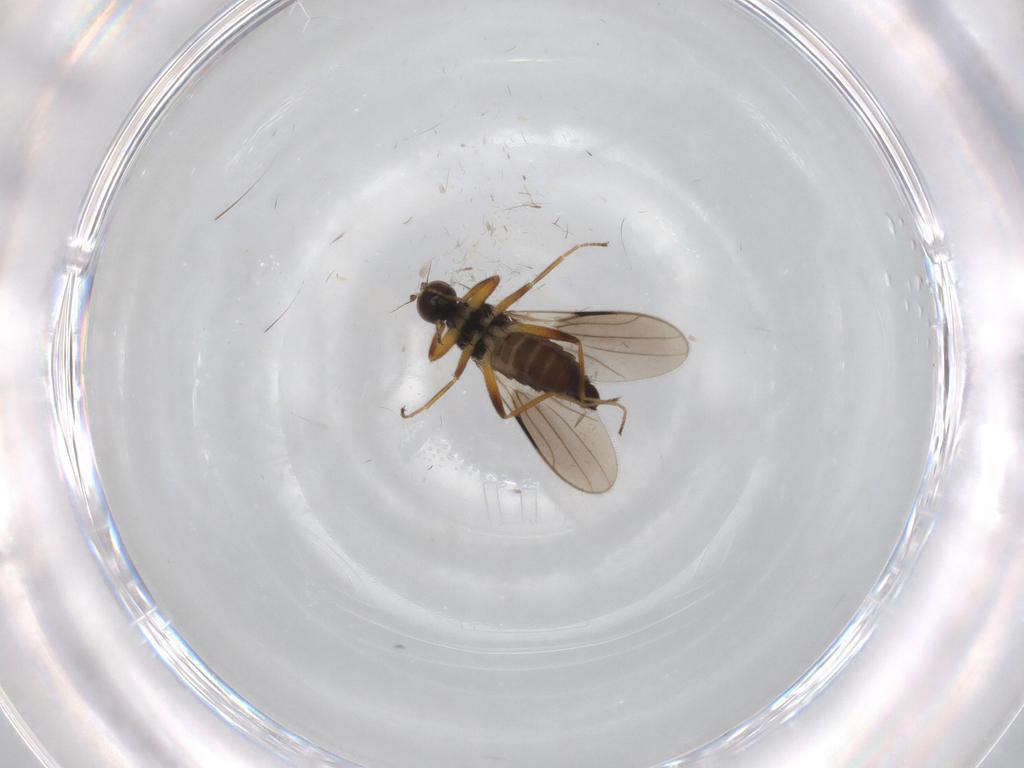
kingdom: Animalia
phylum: Arthropoda
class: Insecta
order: Diptera
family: Hybotidae
